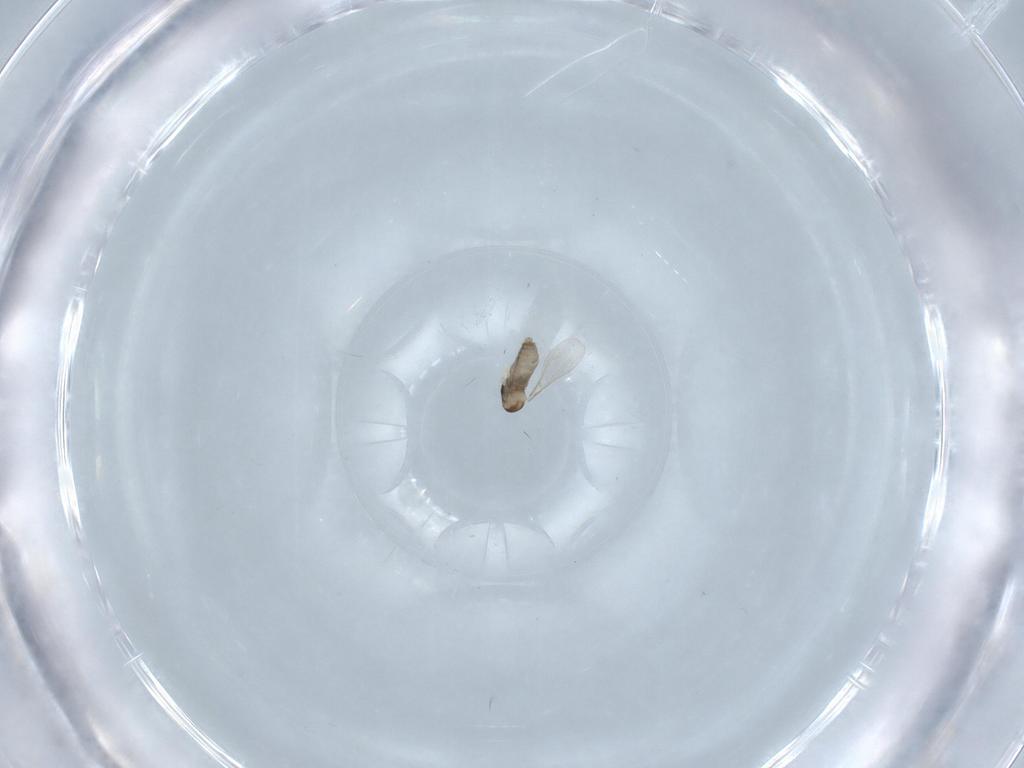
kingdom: Animalia
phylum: Arthropoda
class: Insecta
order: Diptera
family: Cecidomyiidae
